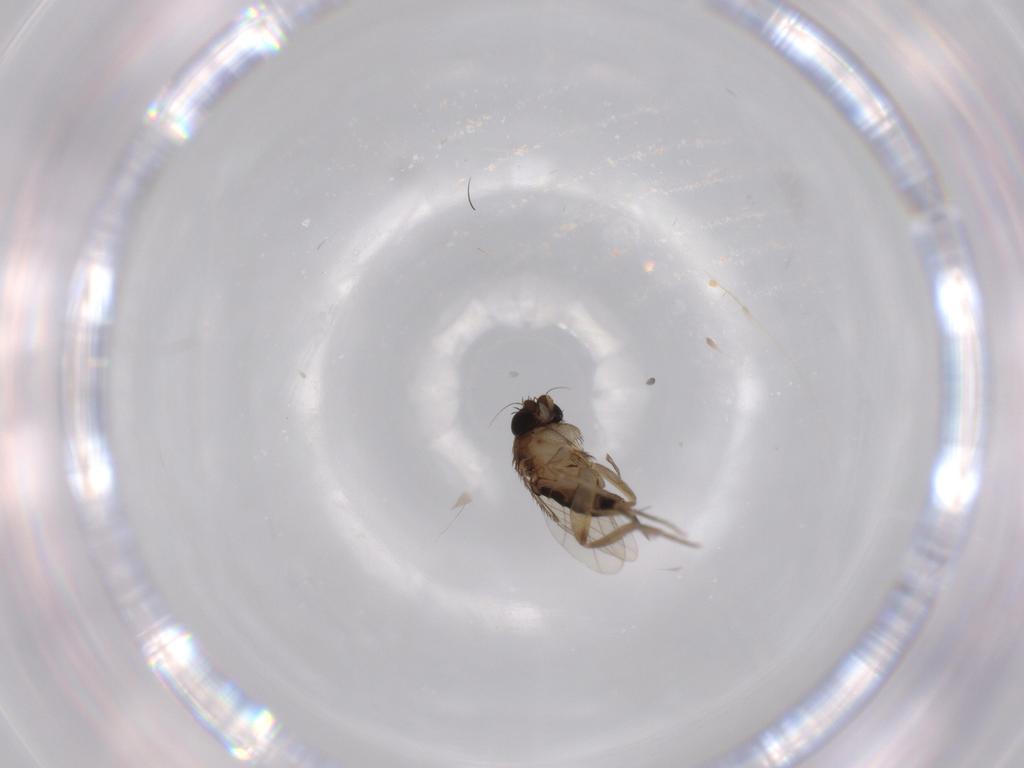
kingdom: Animalia
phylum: Arthropoda
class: Insecta
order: Diptera
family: Phoridae
